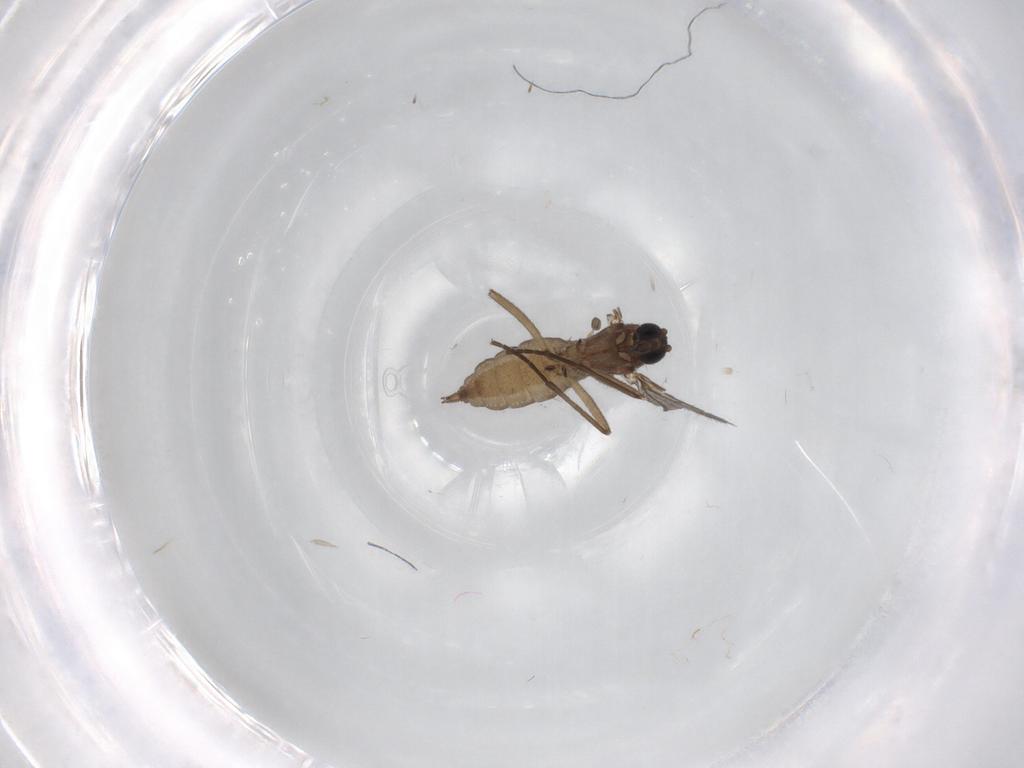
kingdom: Animalia
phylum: Arthropoda
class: Insecta
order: Diptera
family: Sciaridae
